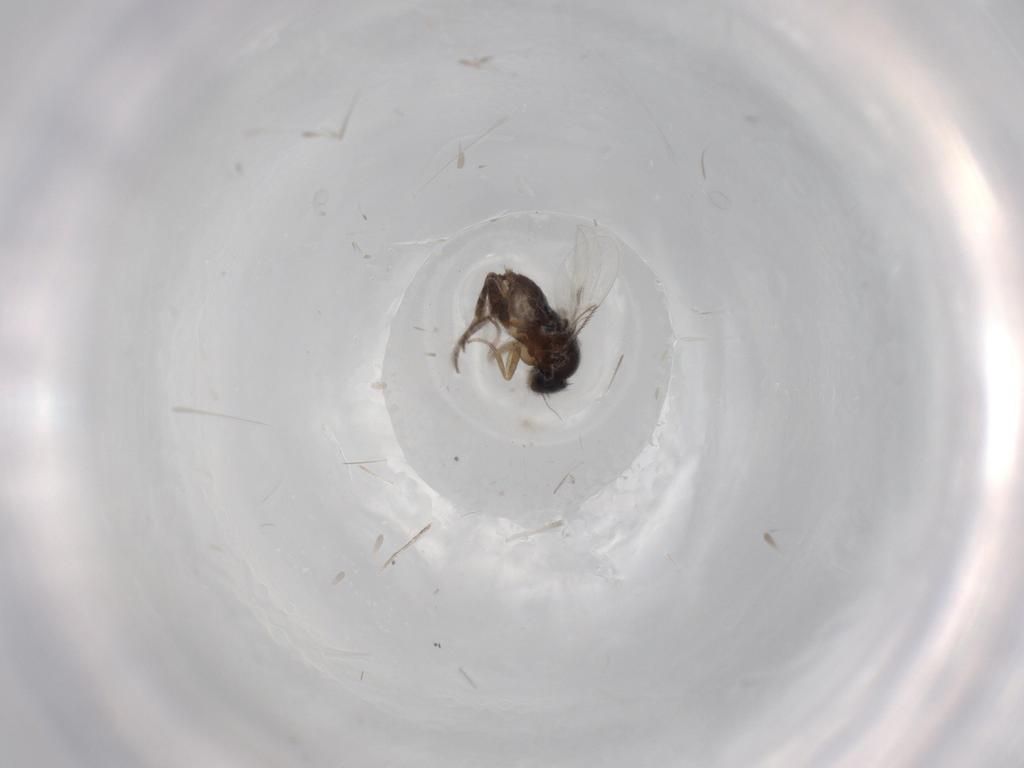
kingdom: Animalia
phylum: Arthropoda
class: Insecta
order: Diptera
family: Phoridae
